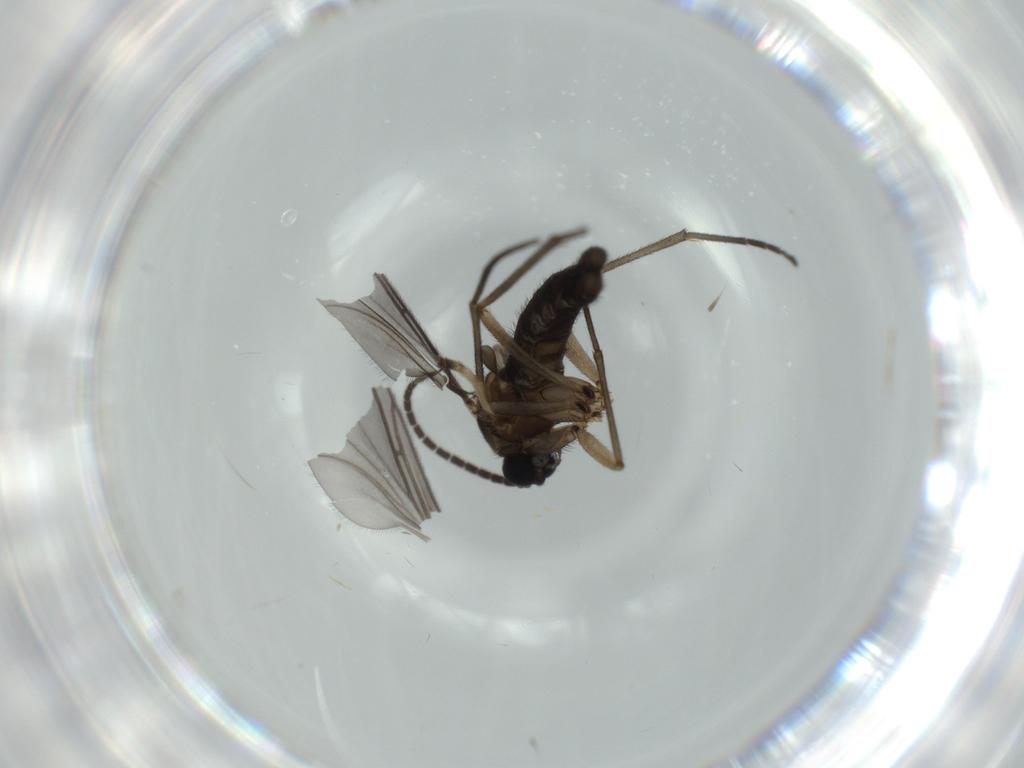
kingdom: Animalia
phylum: Arthropoda
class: Insecta
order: Diptera
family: Sciaridae
